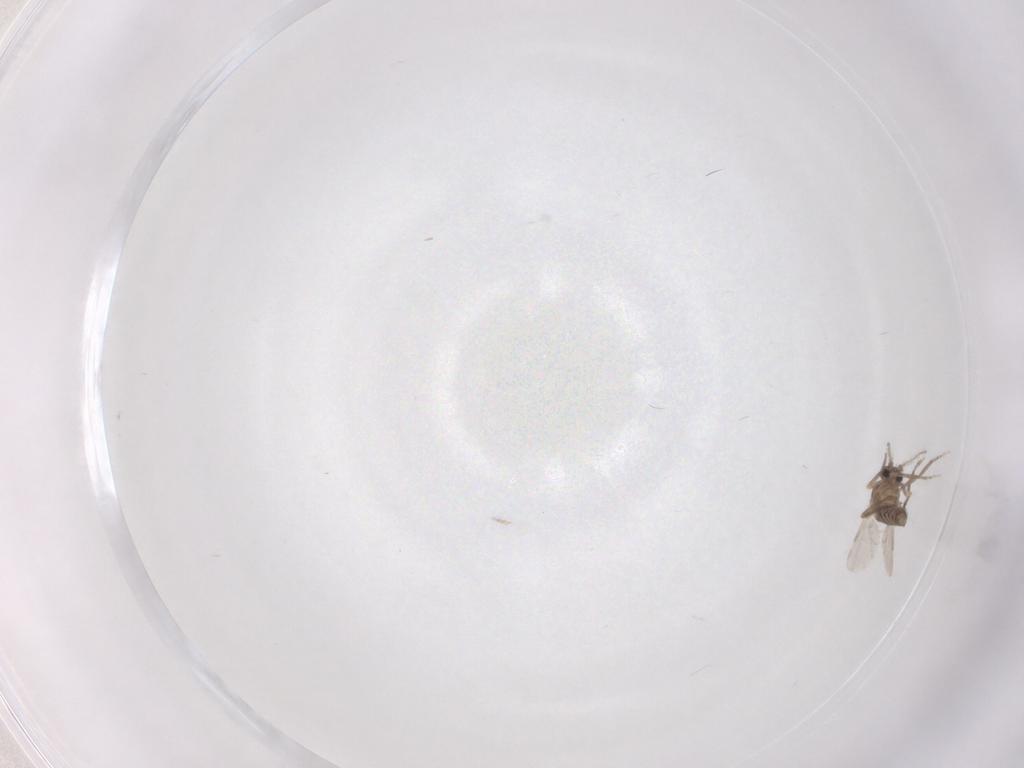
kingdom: Animalia
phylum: Arthropoda
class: Insecta
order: Diptera
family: Ceratopogonidae
